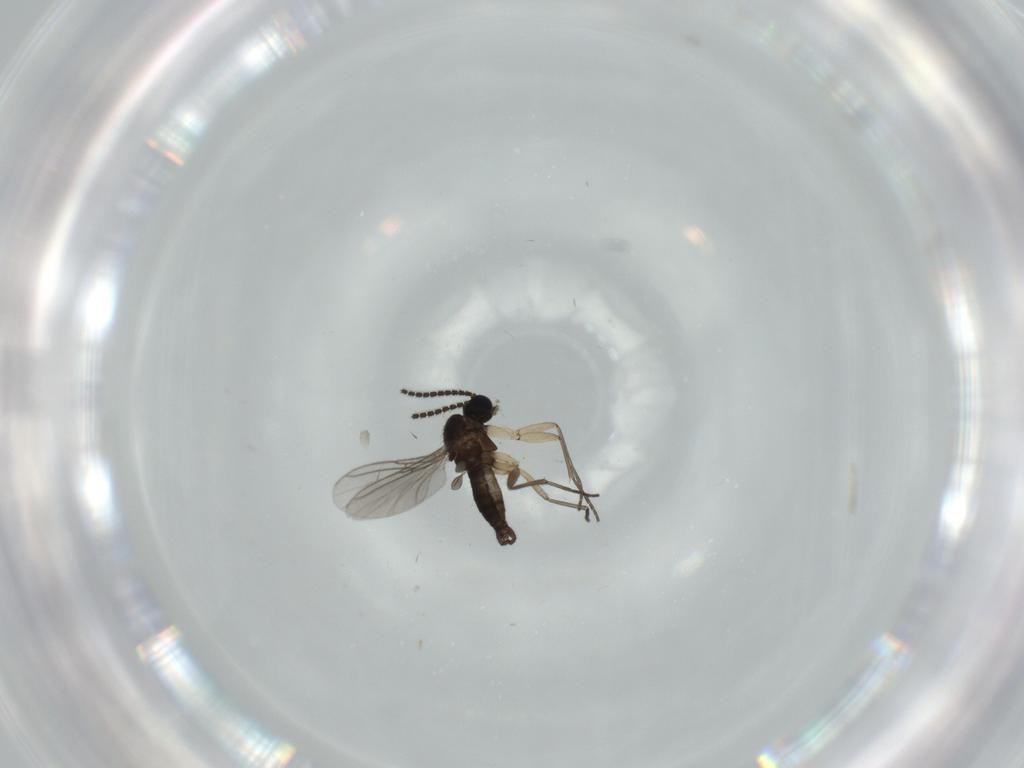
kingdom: Animalia
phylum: Arthropoda
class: Insecta
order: Diptera
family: Sciaridae
